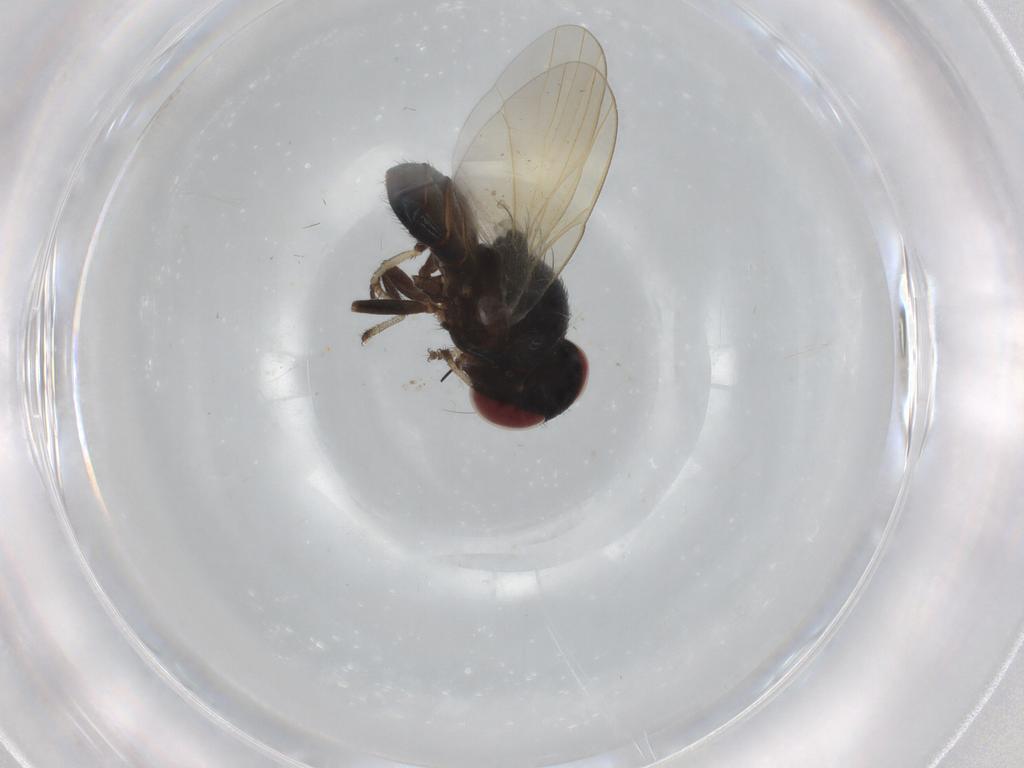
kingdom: Animalia
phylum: Arthropoda
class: Insecta
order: Diptera
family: Lonchaeidae
